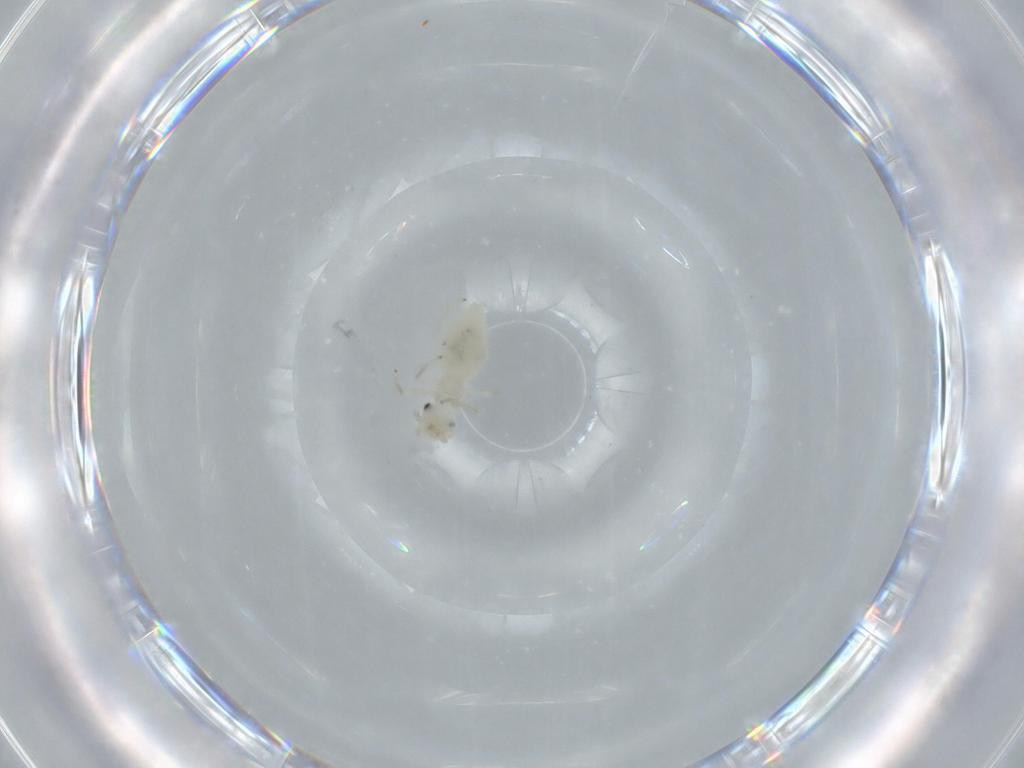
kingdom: Animalia
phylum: Arthropoda
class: Insecta
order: Psocodea
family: Caeciliusidae
